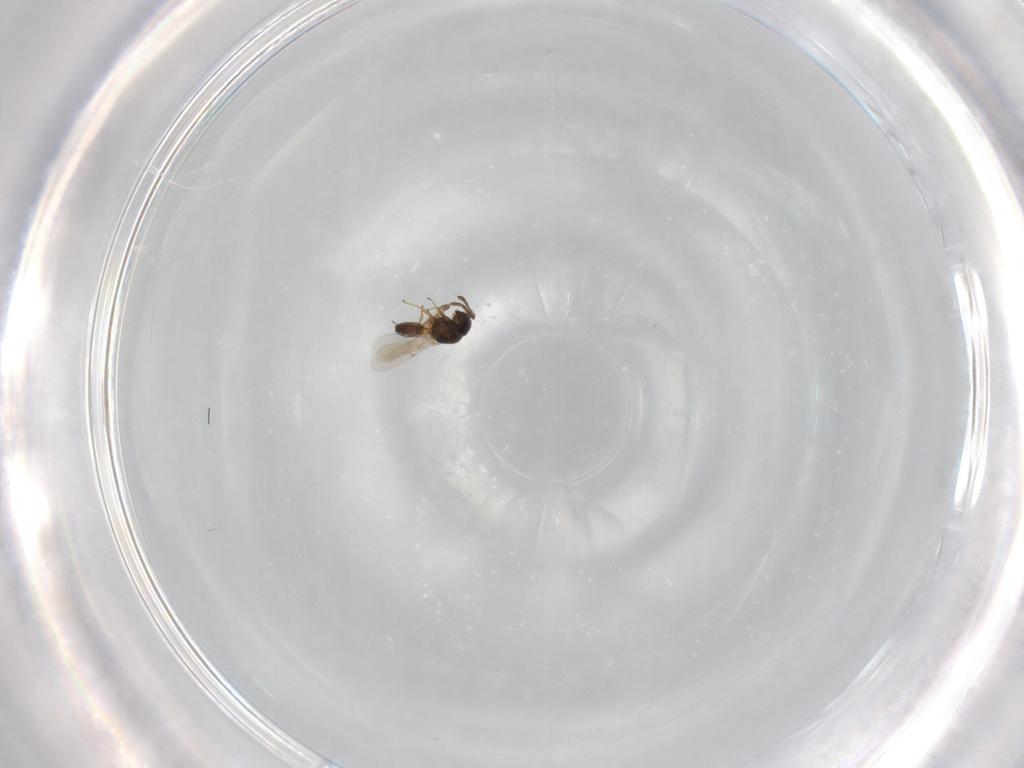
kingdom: Animalia
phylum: Arthropoda
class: Insecta
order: Hymenoptera
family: Scelionidae
